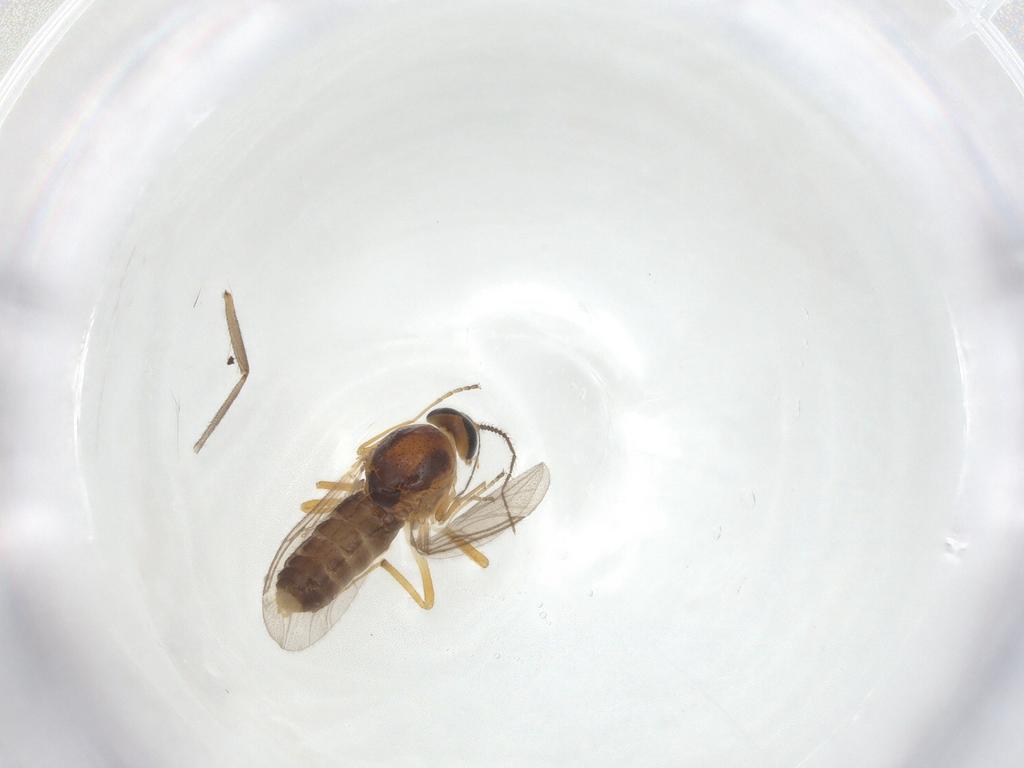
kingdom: Animalia
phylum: Arthropoda
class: Insecta
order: Diptera
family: Ceratopogonidae
